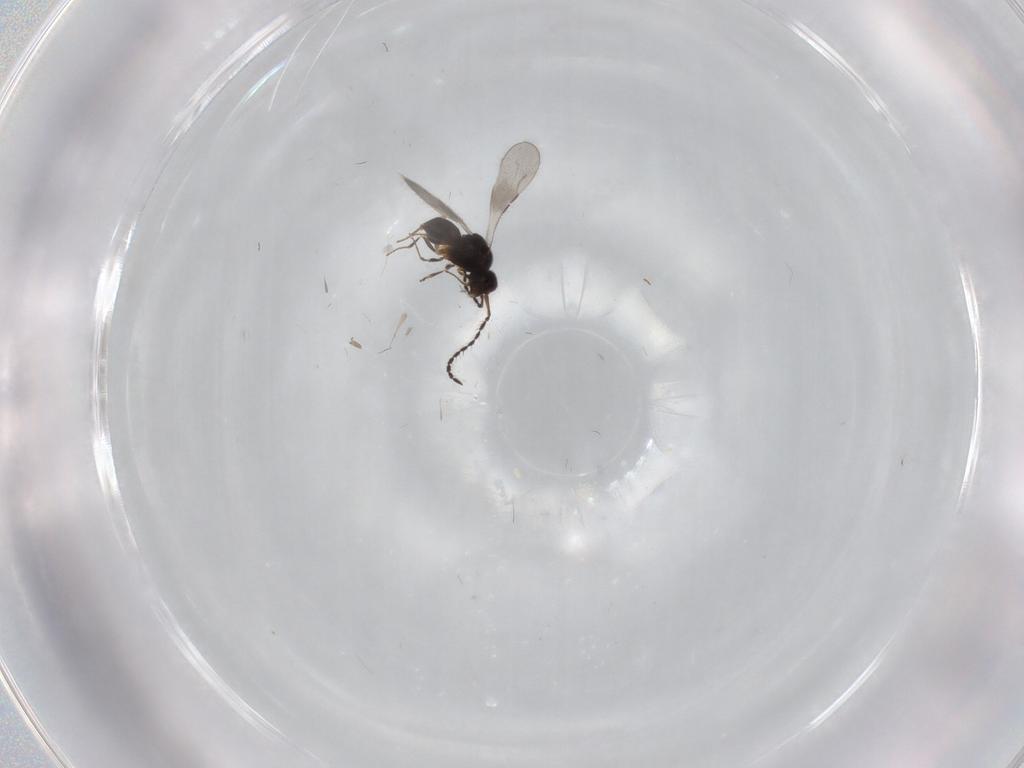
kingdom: Animalia
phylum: Arthropoda
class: Insecta
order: Hymenoptera
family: Ceraphronidae
